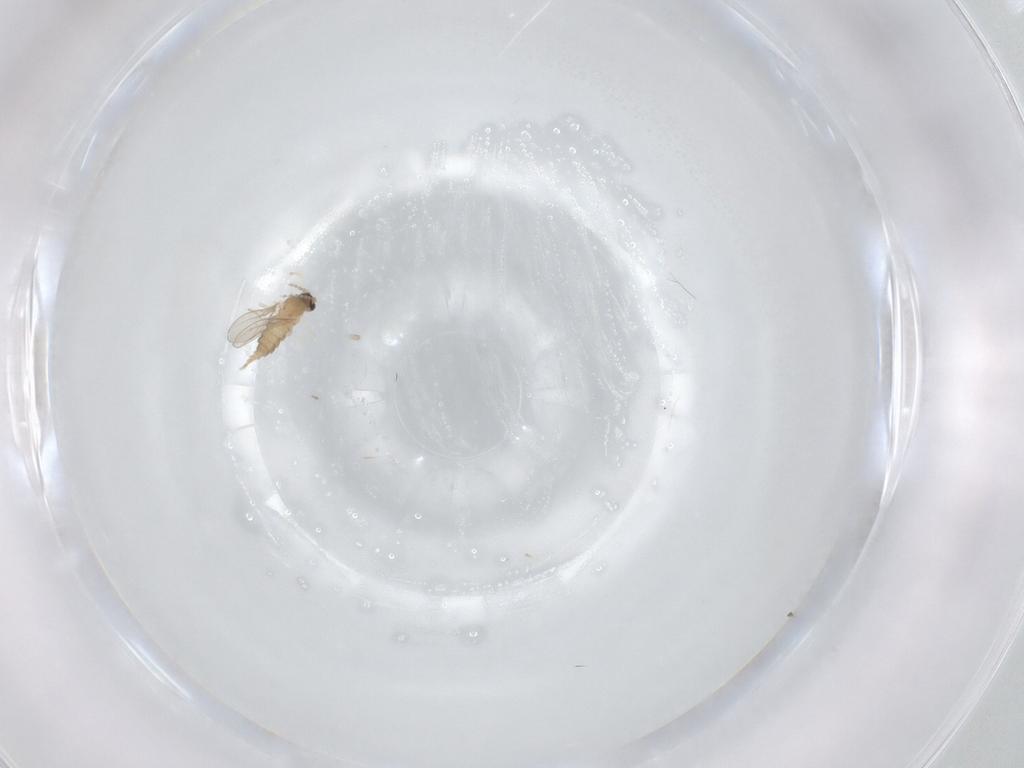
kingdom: Animalia
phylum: Arthropoda
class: Insecta
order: Diptera
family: Cecidomyiidae
